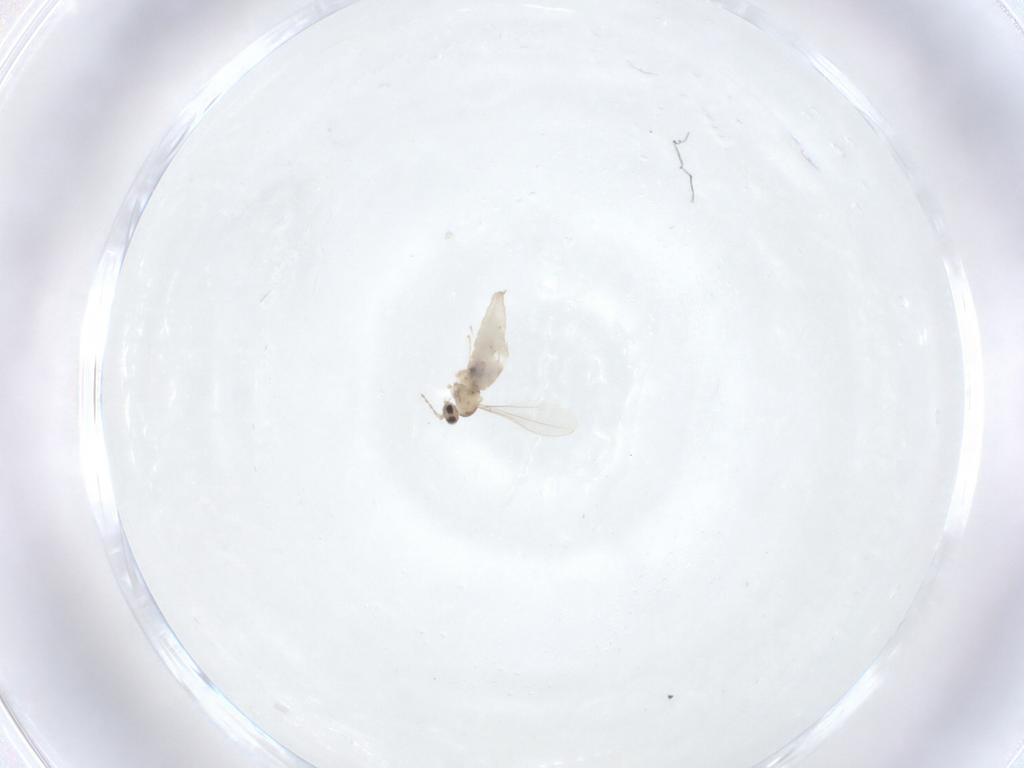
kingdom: Animalia
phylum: Arthropoda
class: Insecta
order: Diptera
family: Cecidomyiidae
